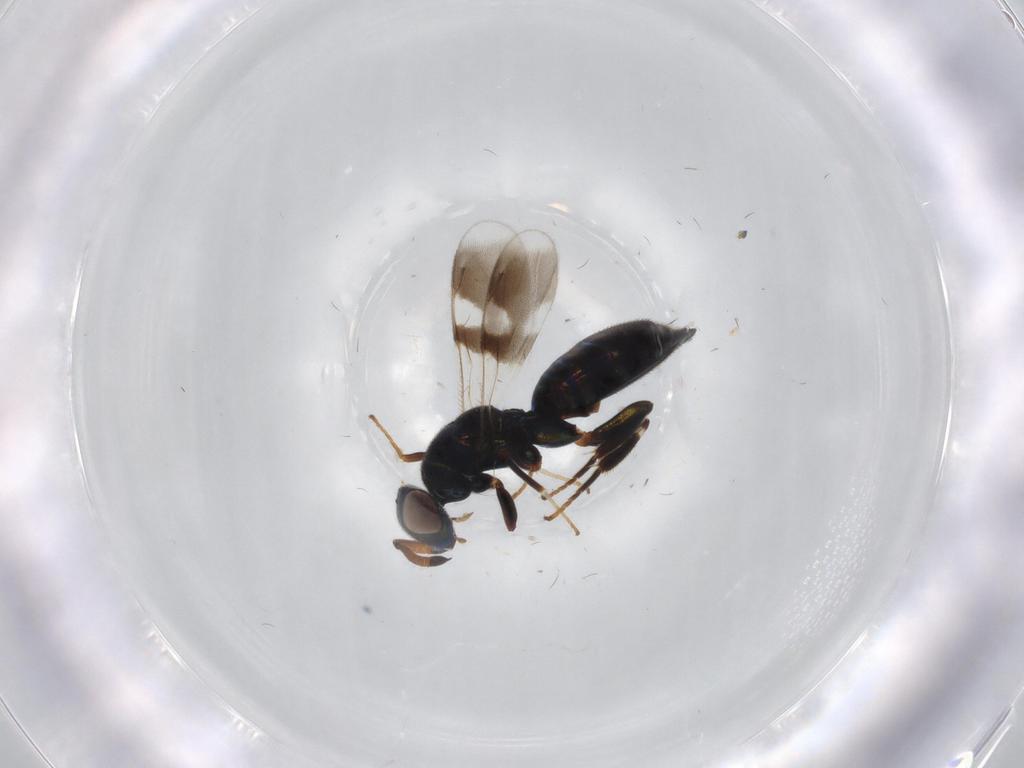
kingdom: Animalia
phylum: Arthropoda
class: Insecta
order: Hymenoptera
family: Cleonyminae
